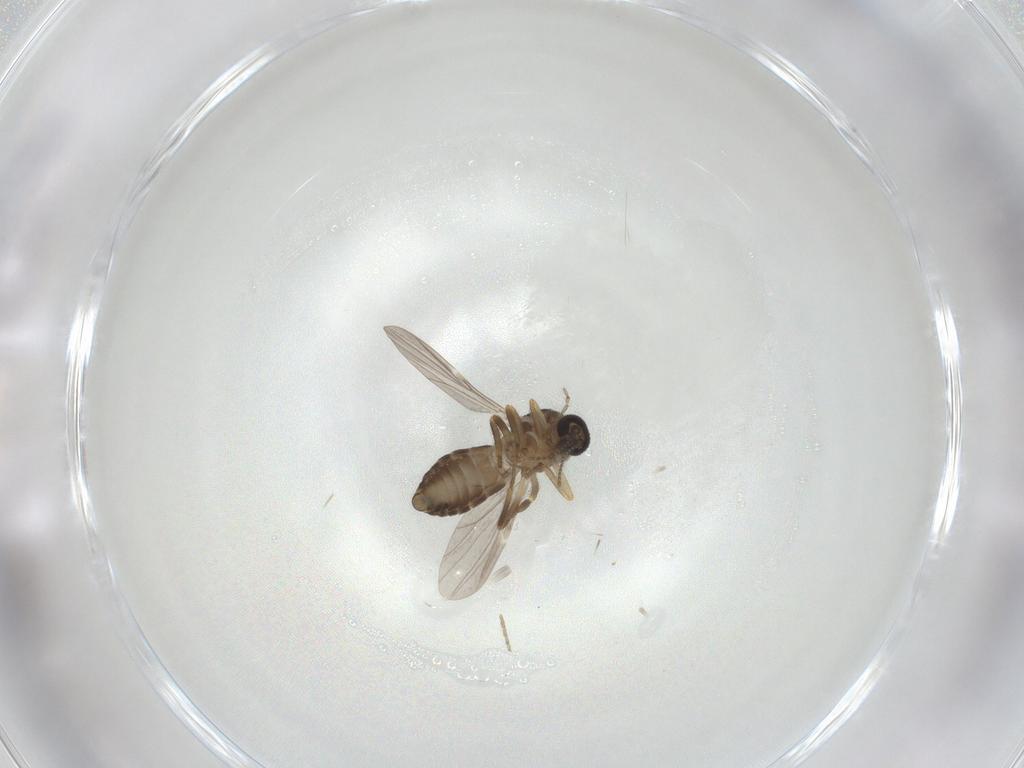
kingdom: Animalia
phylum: Arthropoda
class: Insecta
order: Diptera
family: Ceratopogonidae
